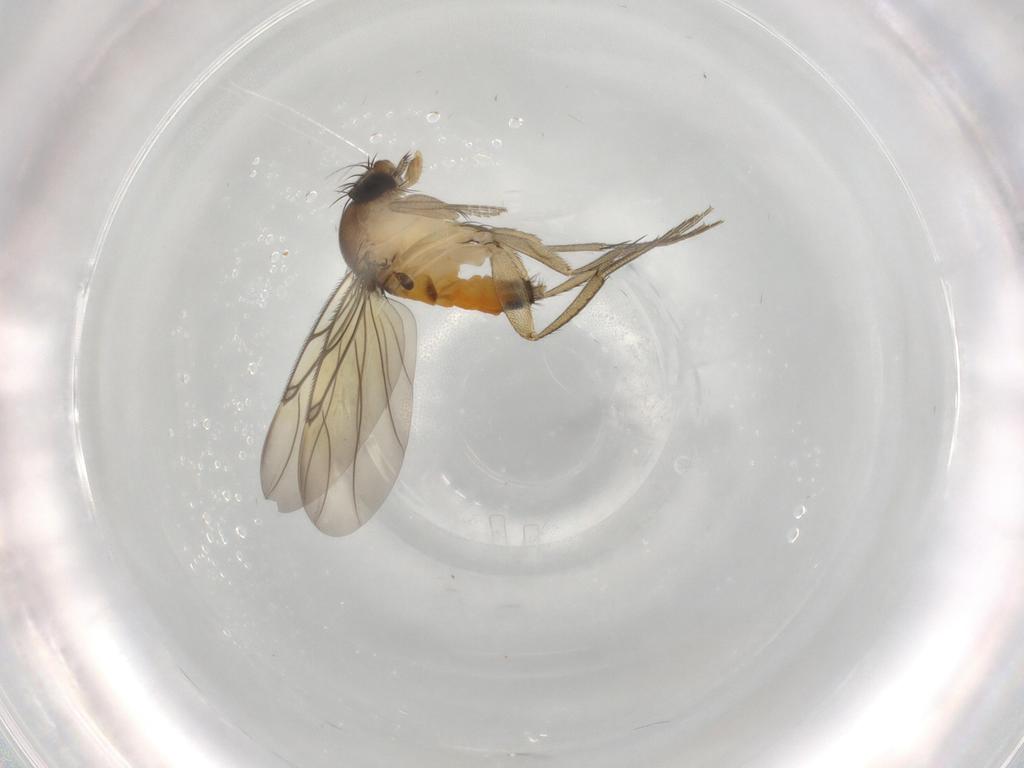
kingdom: Animalia
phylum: Arthropoda
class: Insecta
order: Diptera
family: Phoridae
